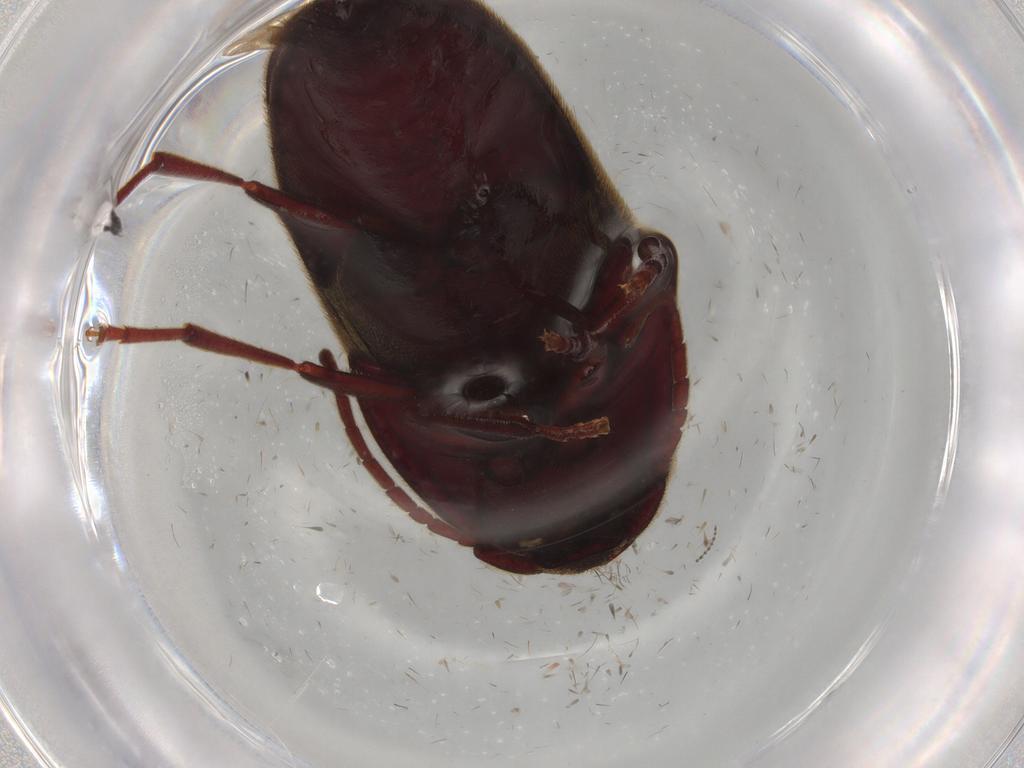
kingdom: Animalia
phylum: Arthropoda
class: Insecta
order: Coleoptera
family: Eucnemidae
